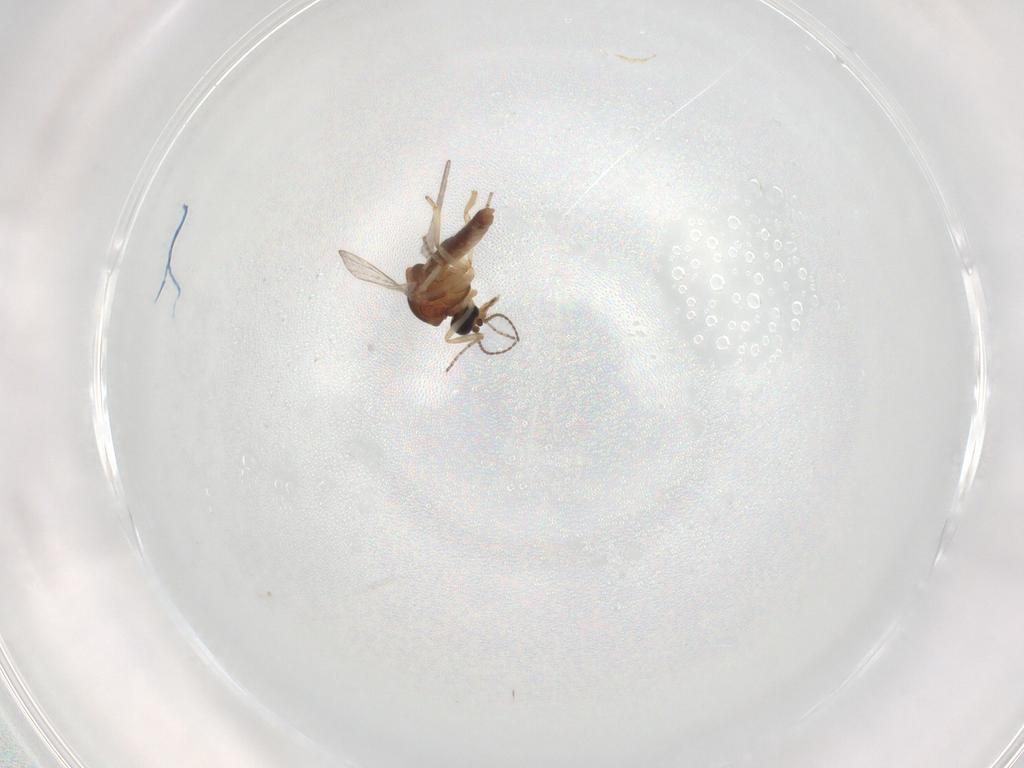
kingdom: Animalia
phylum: Arthropoda
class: Insecta
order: Diptera
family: Ceratopogonidae
